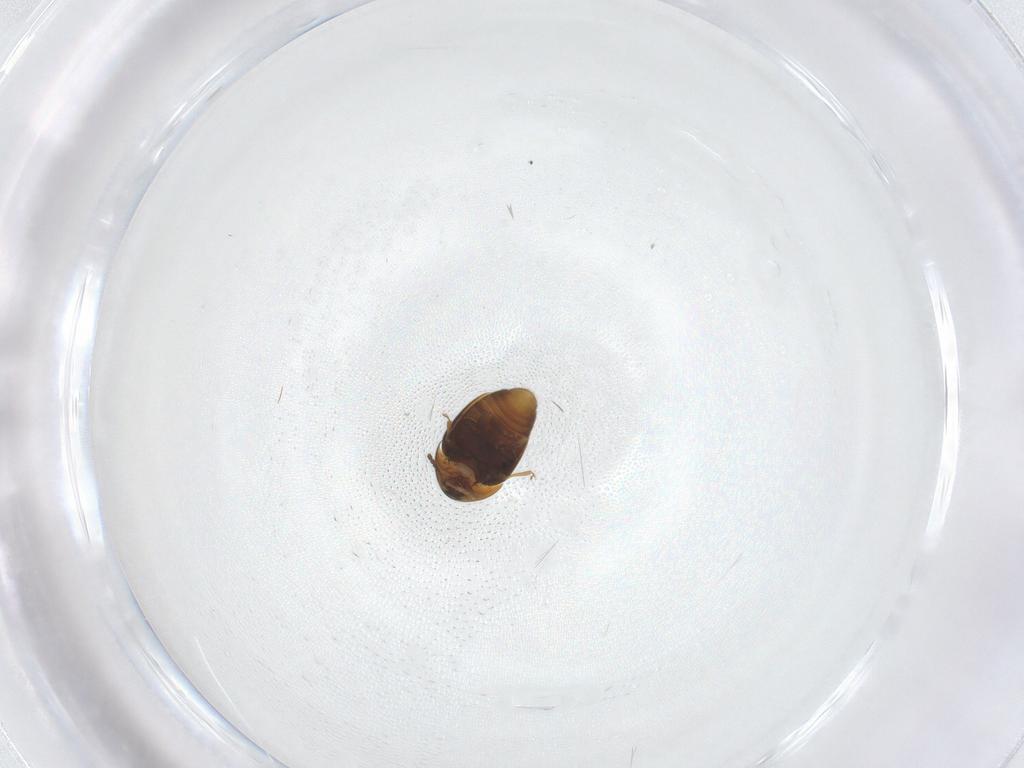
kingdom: Animalia
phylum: Arthropoda
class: Insecta
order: Coleoptera
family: Corylophidae
